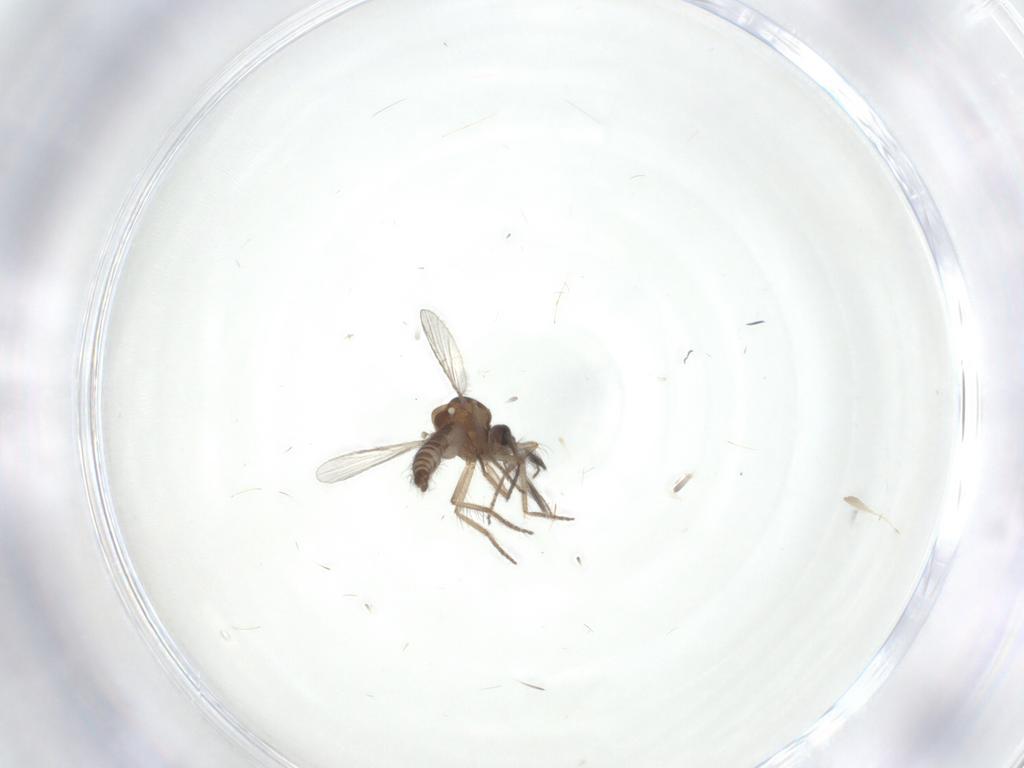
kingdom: Animalia
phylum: Arthropoda
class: Insecta
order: Diptera
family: Sciaridae
